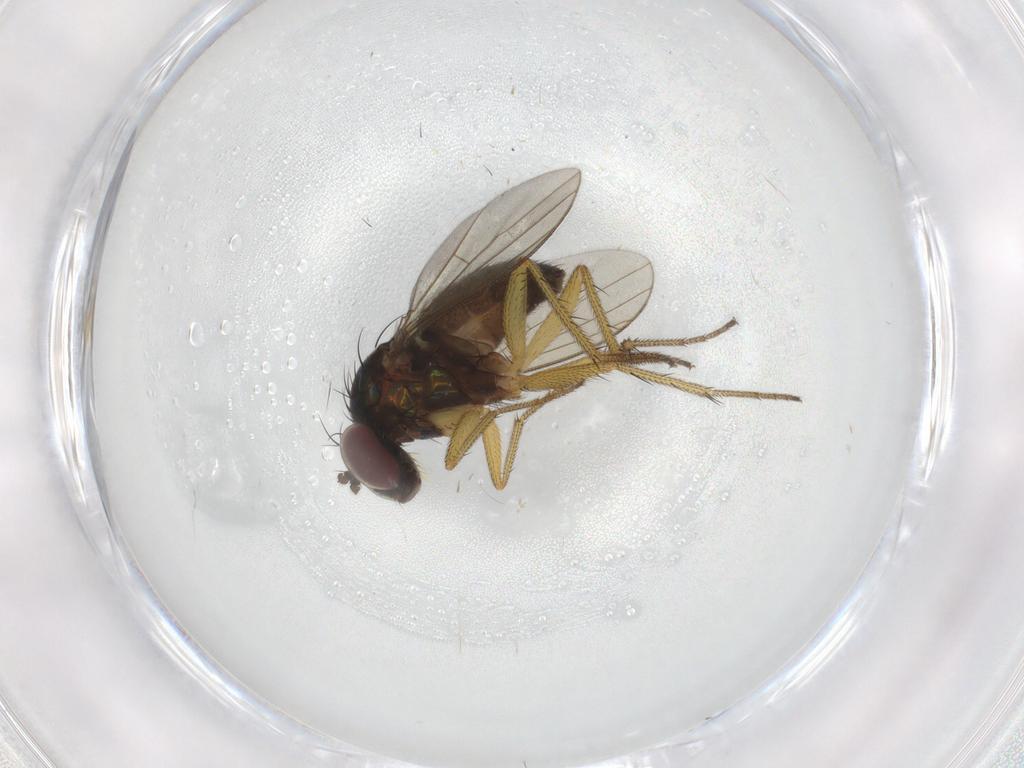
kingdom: Animalia
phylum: Arthropoda
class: Insecta
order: Diptera
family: Dolichopodidae
